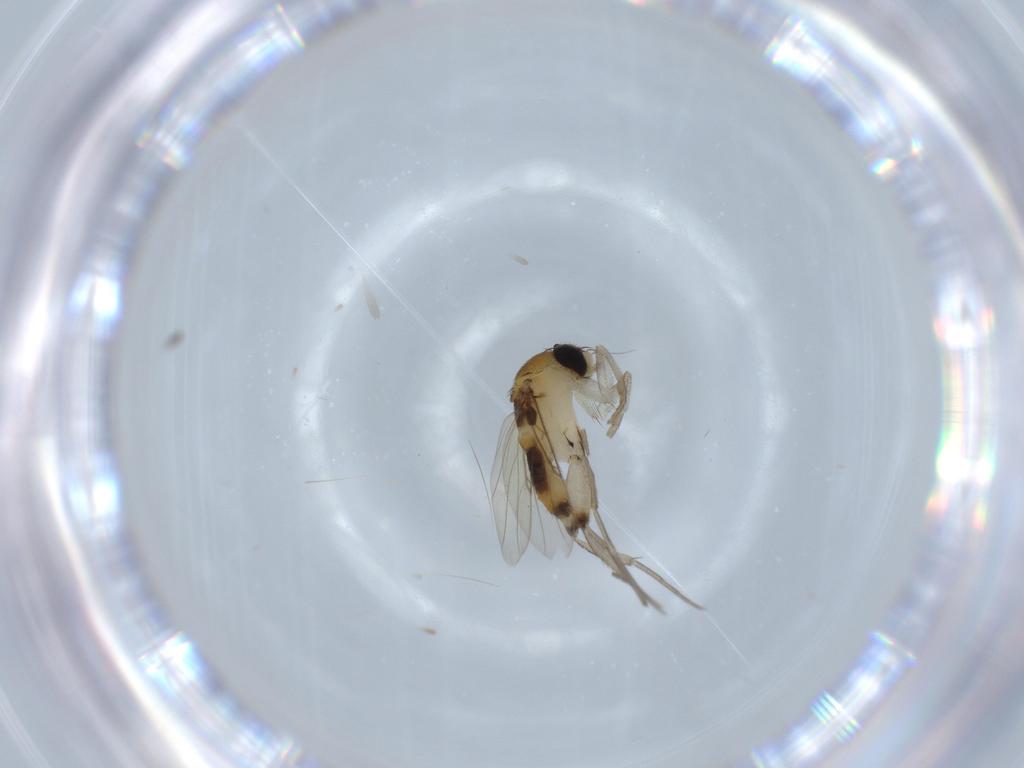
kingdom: Animalia
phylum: Arthropoda
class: Insecta
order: Diptera
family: Phoridae
